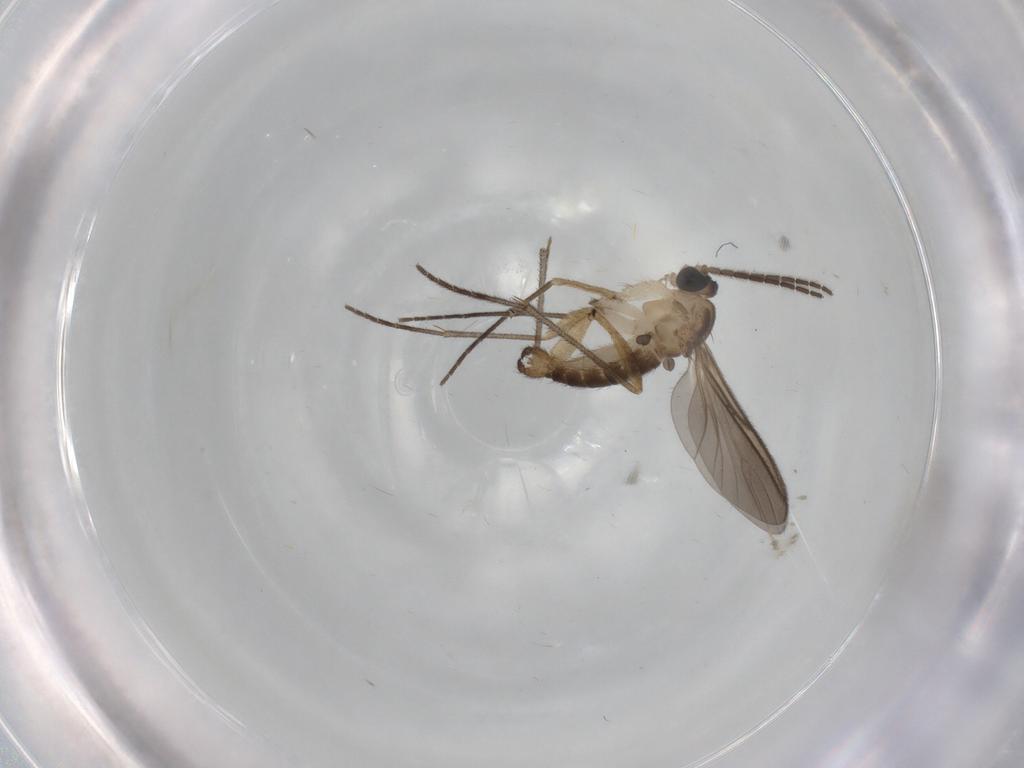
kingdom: Animalia
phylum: Arthropoda
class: Insecta
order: Diptera
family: Sciaridae
